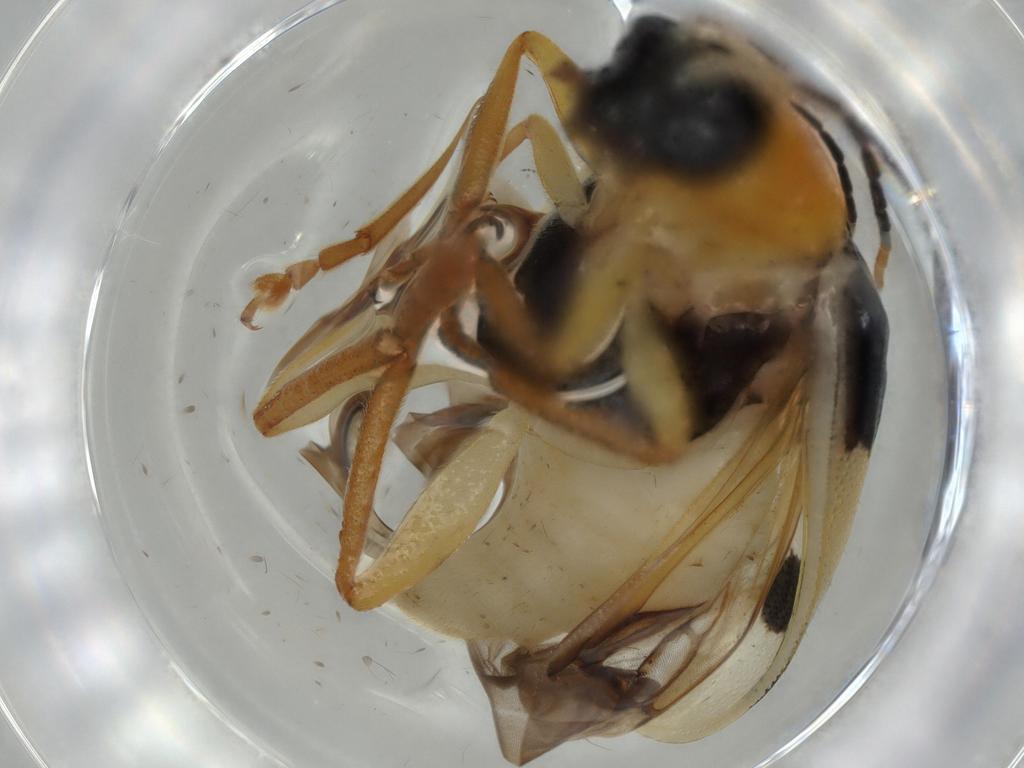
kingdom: Animalia
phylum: Arthropoda
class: Insecta
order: Coleoptera
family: Chrysomelidae
